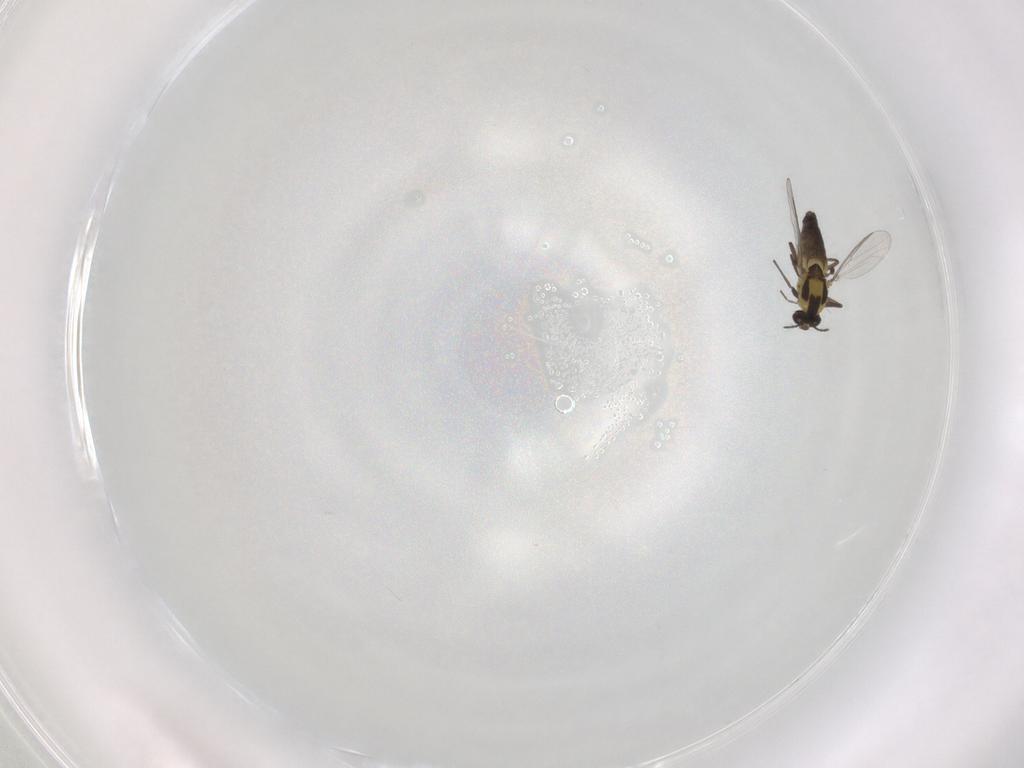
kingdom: Animalia
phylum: Arthropoda
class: Insecta
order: Diptera
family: Chironomidae
